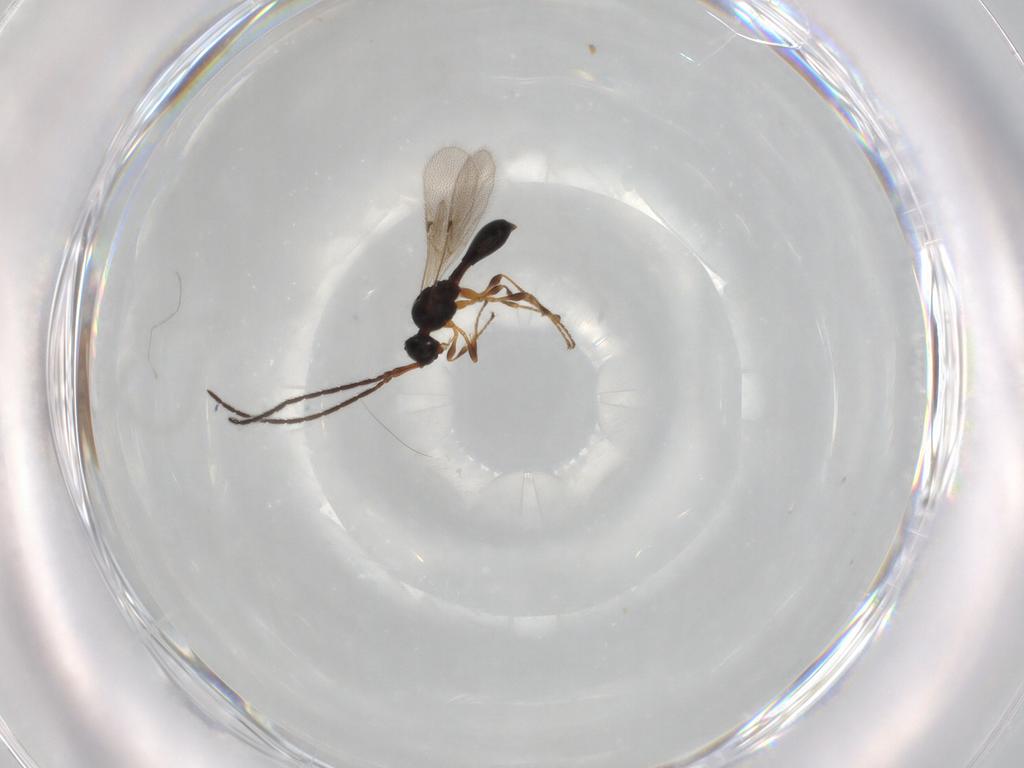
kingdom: Animalia
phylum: Arthropoda
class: Insecta
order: Hymenoptera
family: Diapriidae
